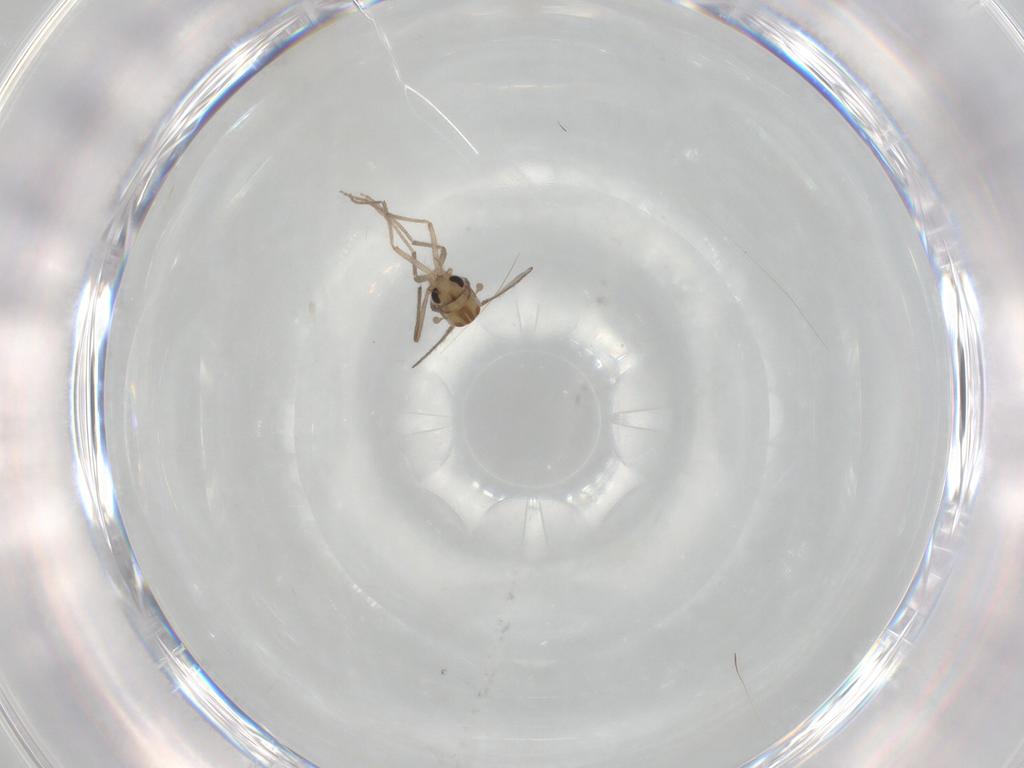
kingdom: Animalia
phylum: Arthropoda
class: Insecta
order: Diptera
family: Chironomidae
